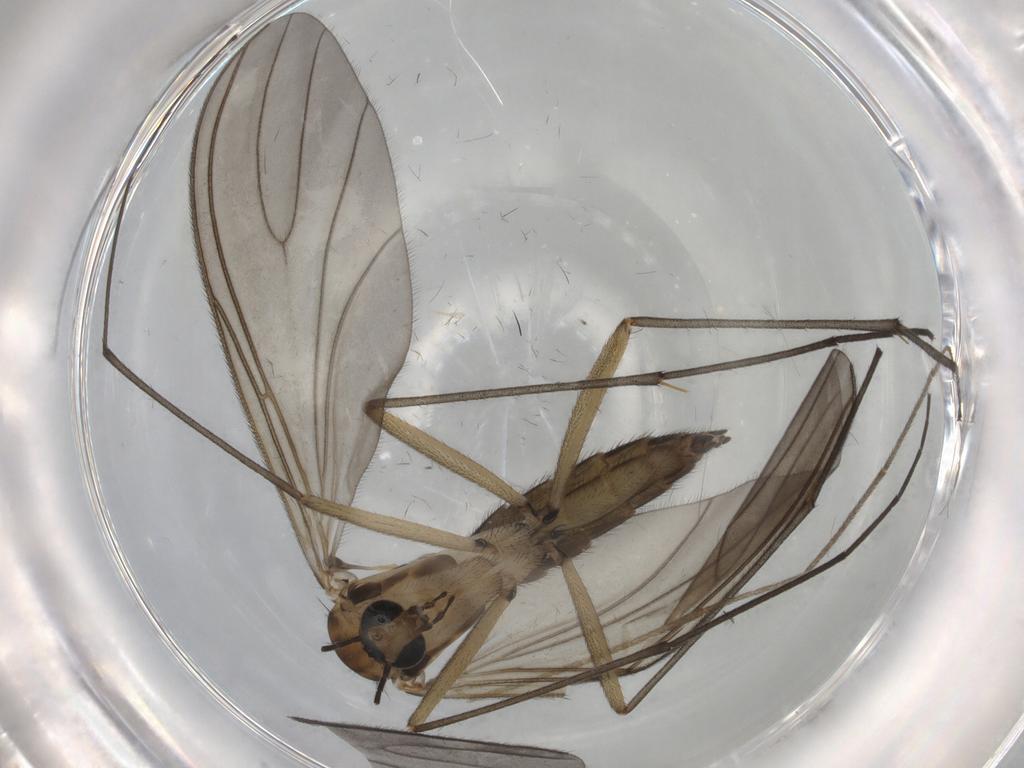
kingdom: Animalia
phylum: Arthropoda
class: Insecta
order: Diptera
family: Sciaridae
